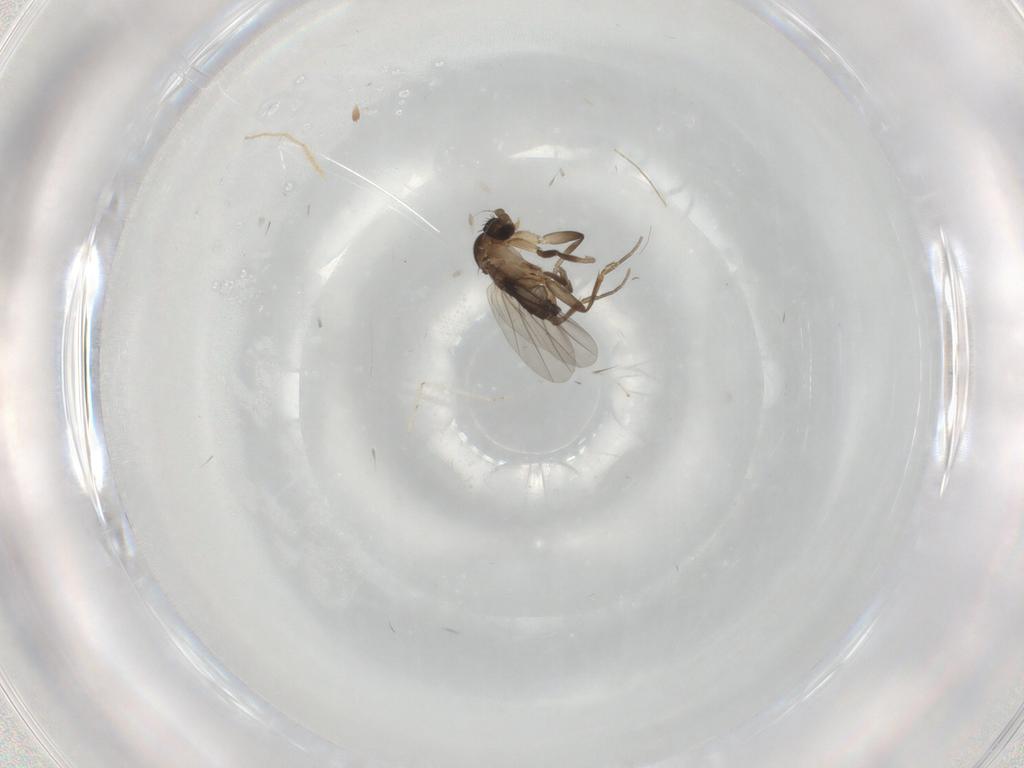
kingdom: Animalia
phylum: Arthropoda
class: Insecta
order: Diptera
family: Phoridae
